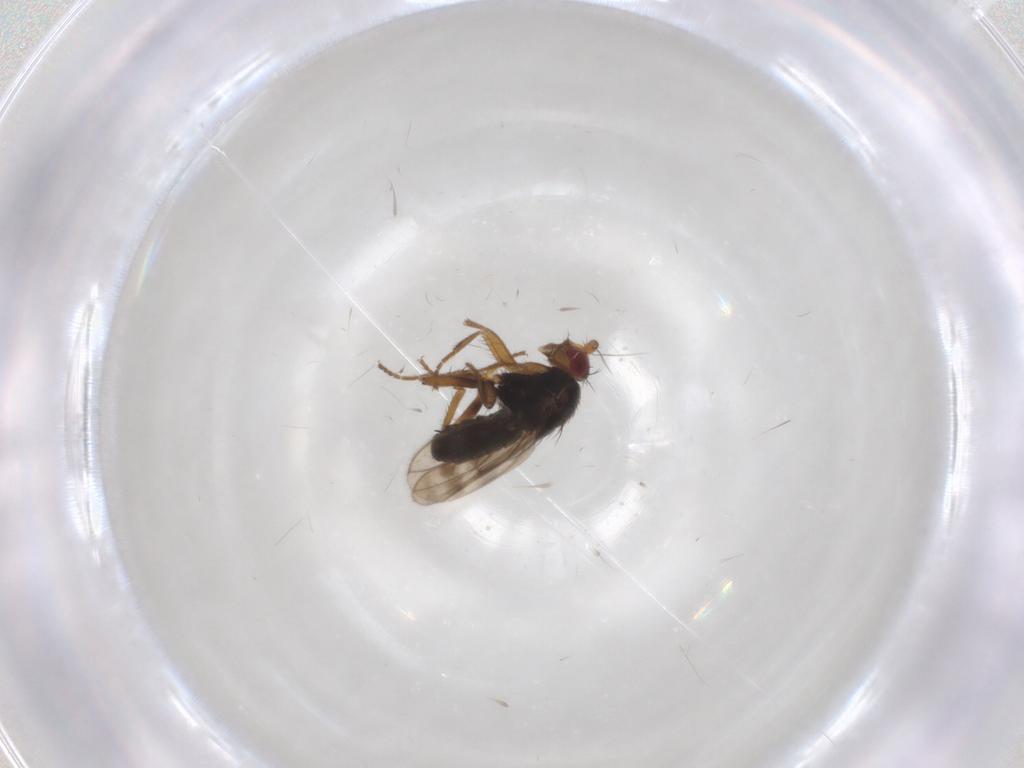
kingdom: Animalia
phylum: Arthropoda
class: Insecta
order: Diptera
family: Sphaeroceridae
